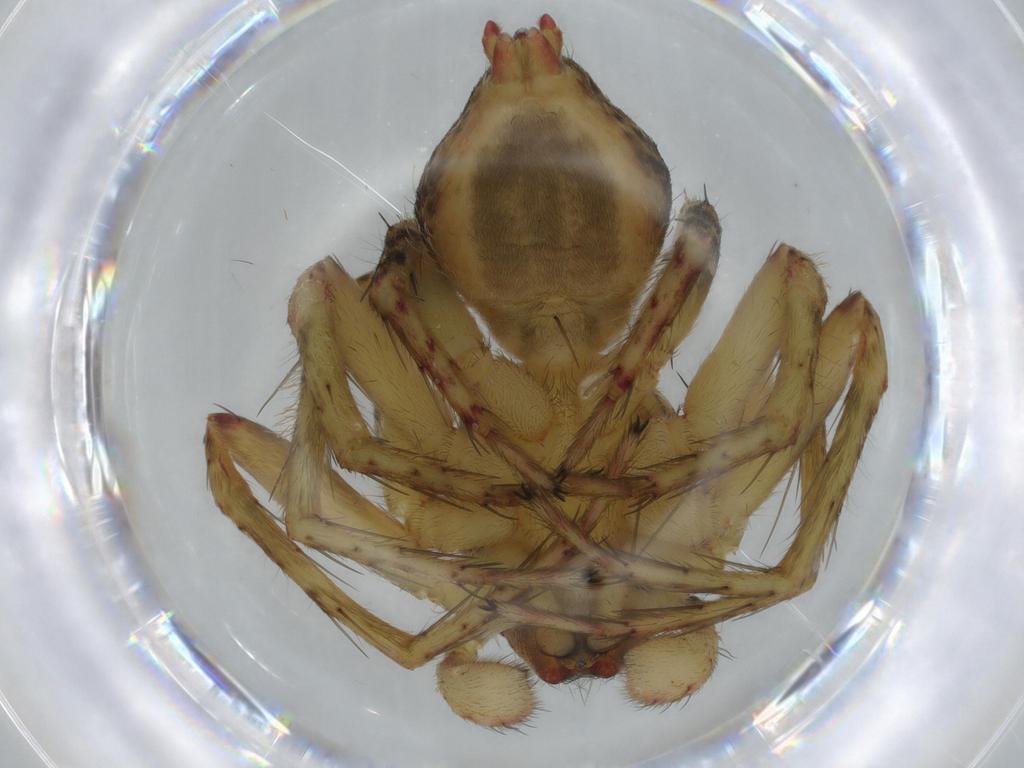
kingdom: Animalia
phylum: Arthropoda
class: Arachnida
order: Araneae
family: Oxyopidae
